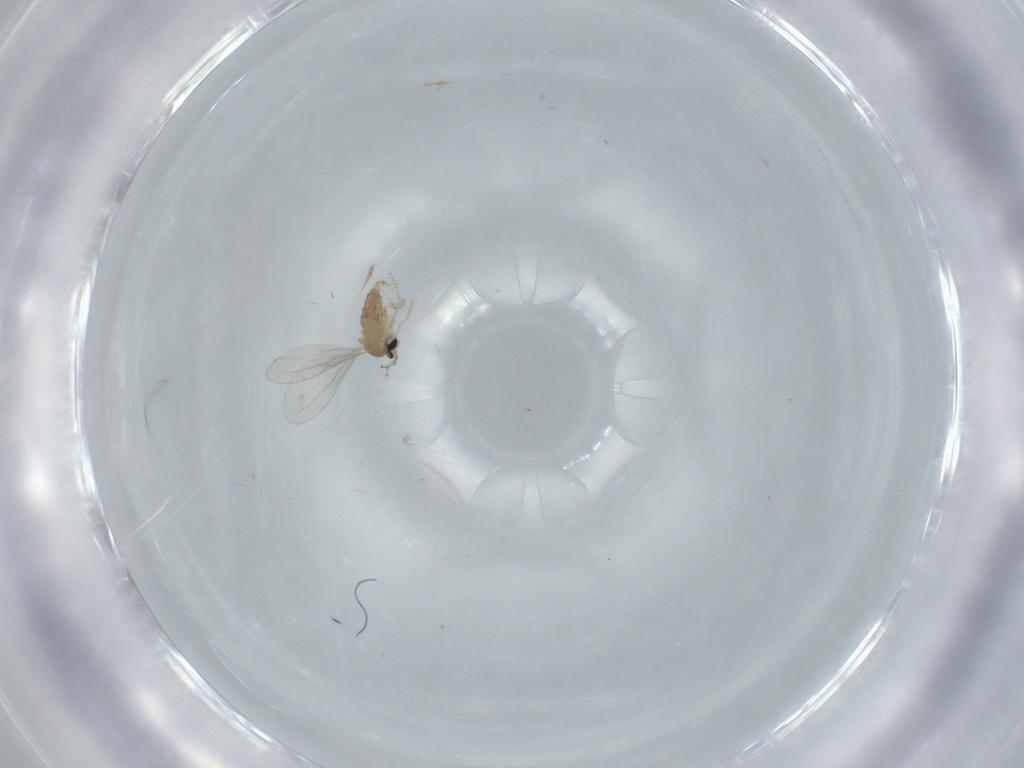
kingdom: Animalia
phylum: Arthropoda
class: Insecta
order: Diptera
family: Cecidomyiidae
